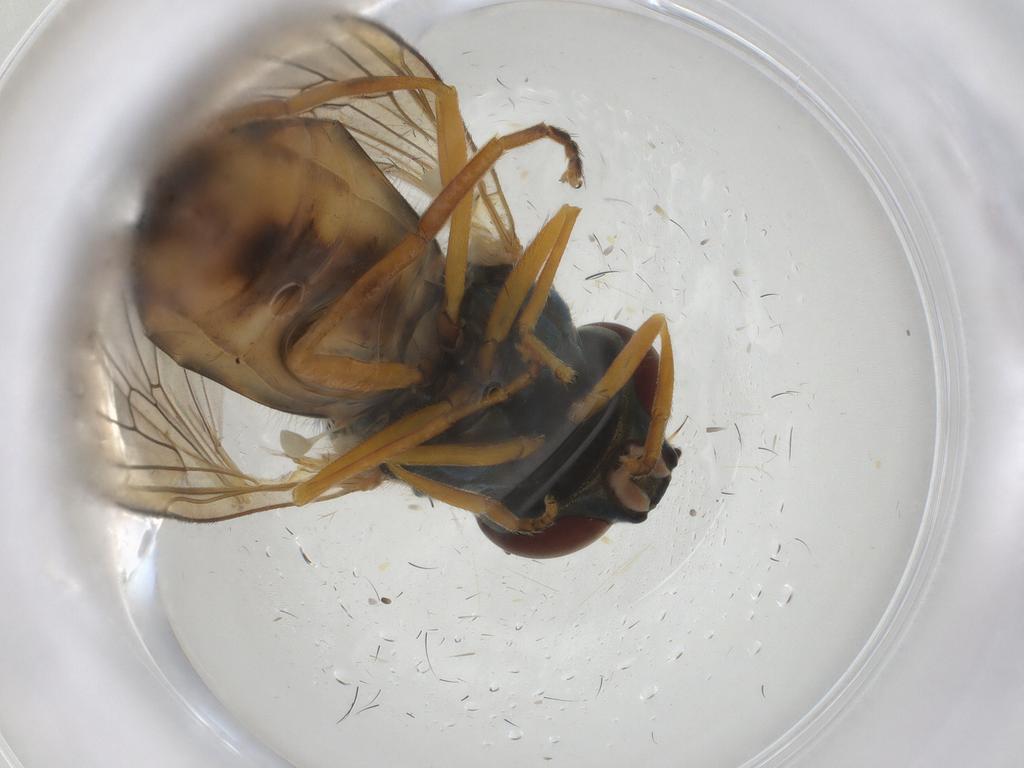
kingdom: Animalia
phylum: Arthropoda
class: Insecta
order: Diptera
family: Syrphidae
